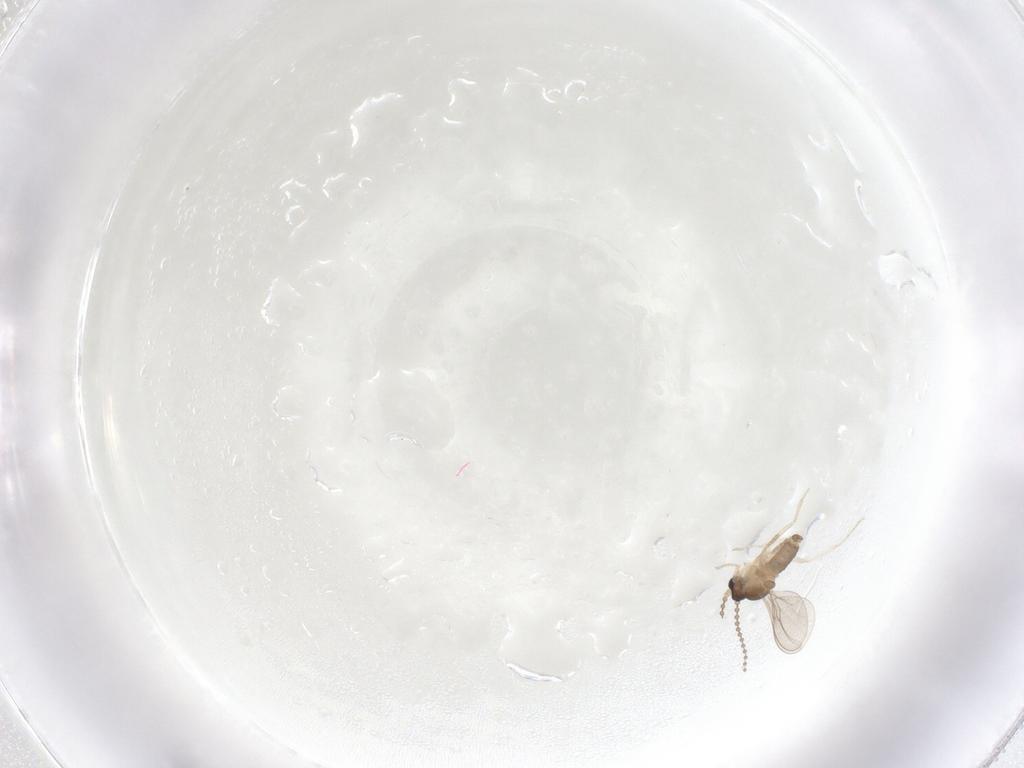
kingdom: Animalia
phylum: Arthropoda
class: Insecta
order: Diptera
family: Cecidomyiidae
